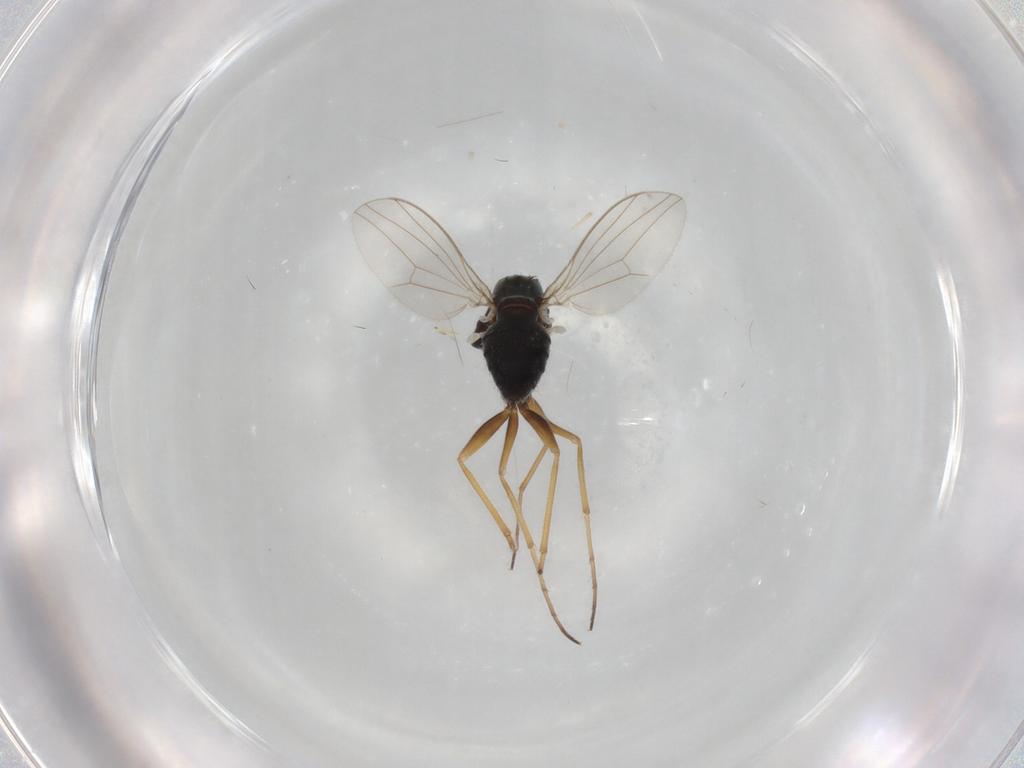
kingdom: Animalia
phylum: Arthropoda
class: Insecta
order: Diptera
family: Dolichopodidae
